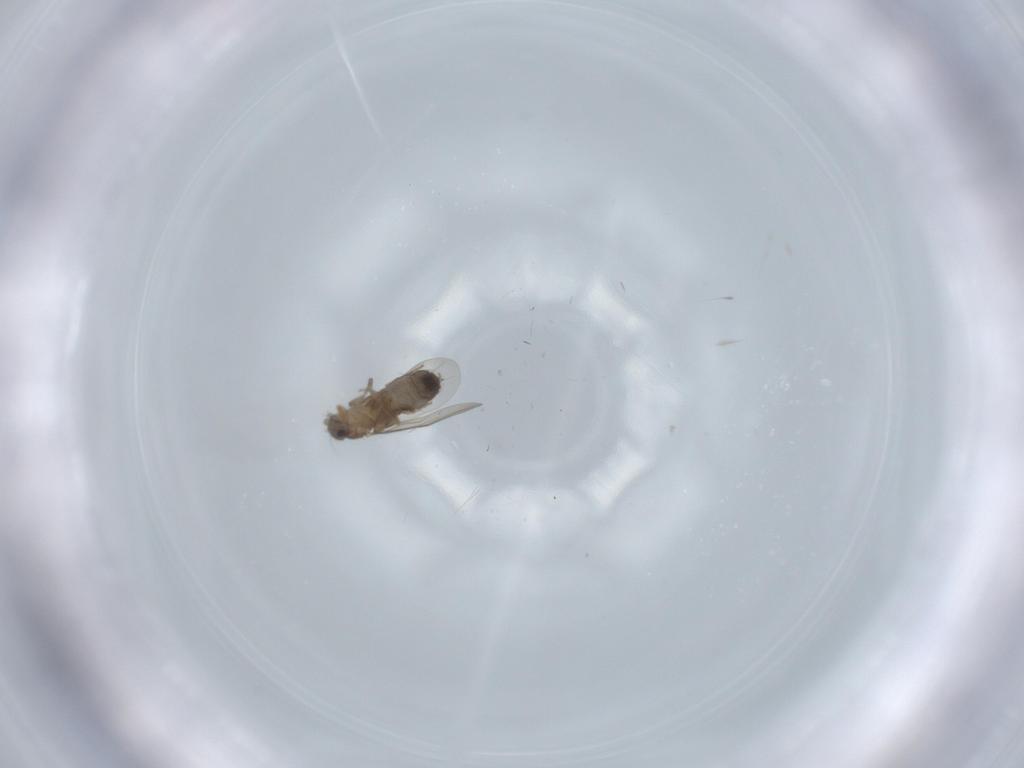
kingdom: Animalia
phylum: Arthropoda
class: Insecta
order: Diptera
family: Phoridae
